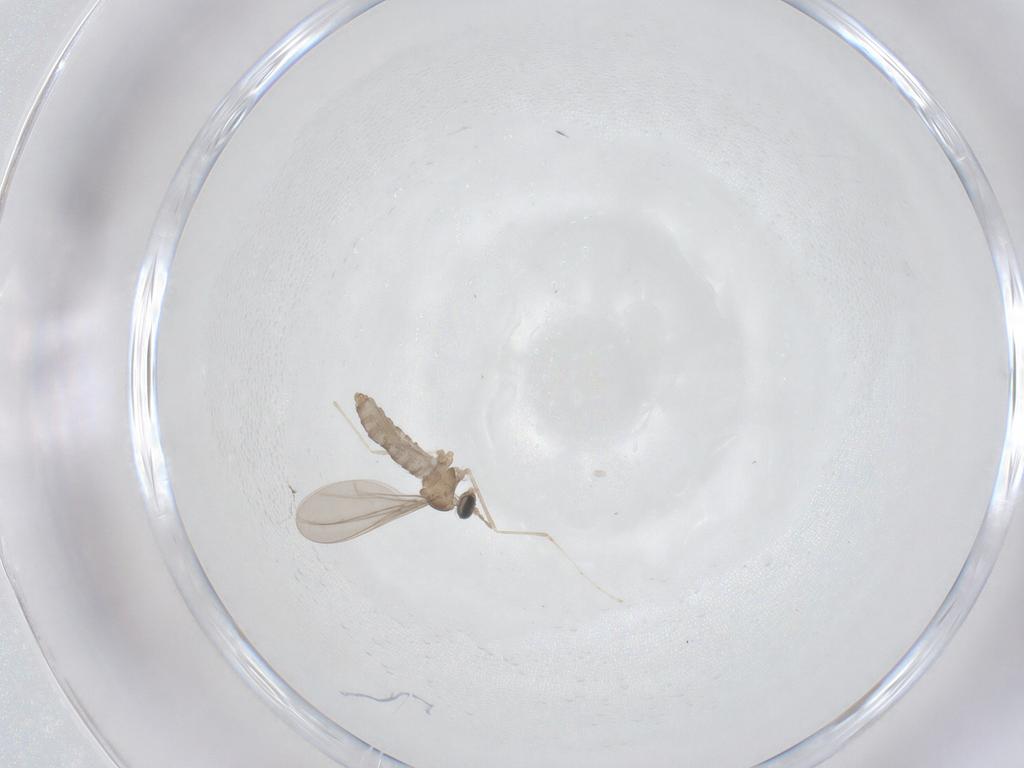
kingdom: Animalia
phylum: Arthropoda
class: Insecta
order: Diptera
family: Cecidomyiidae
